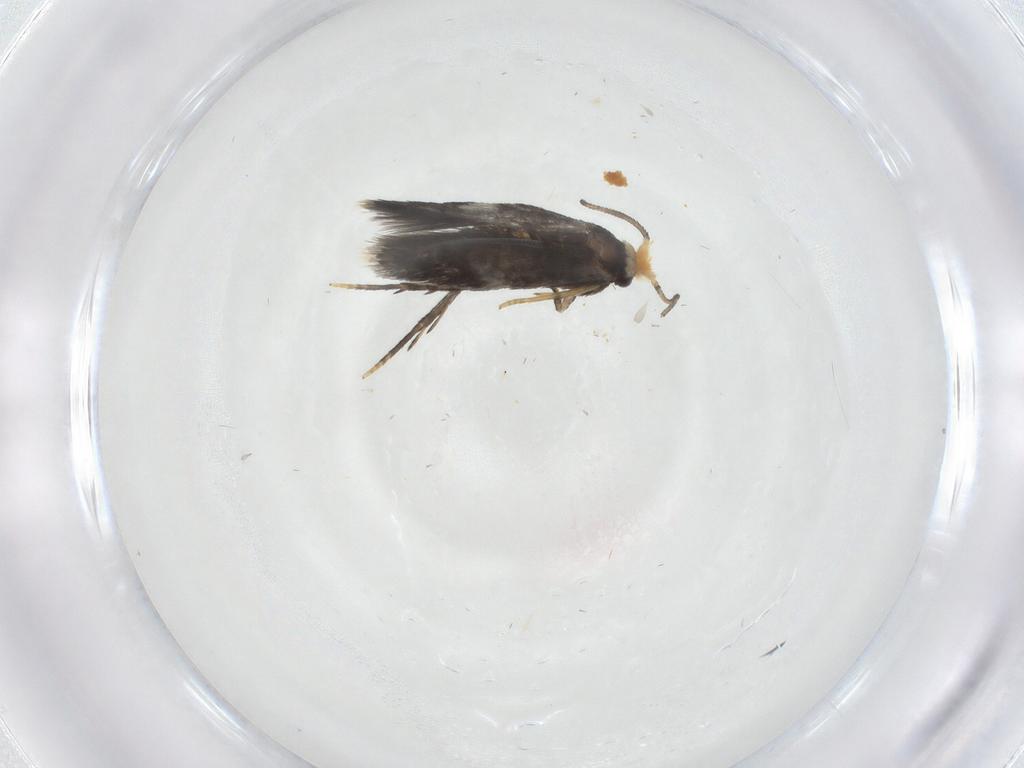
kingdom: Animalia
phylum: Arthropoda
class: Insecta
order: Lepidoptera
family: Nepticulidae
